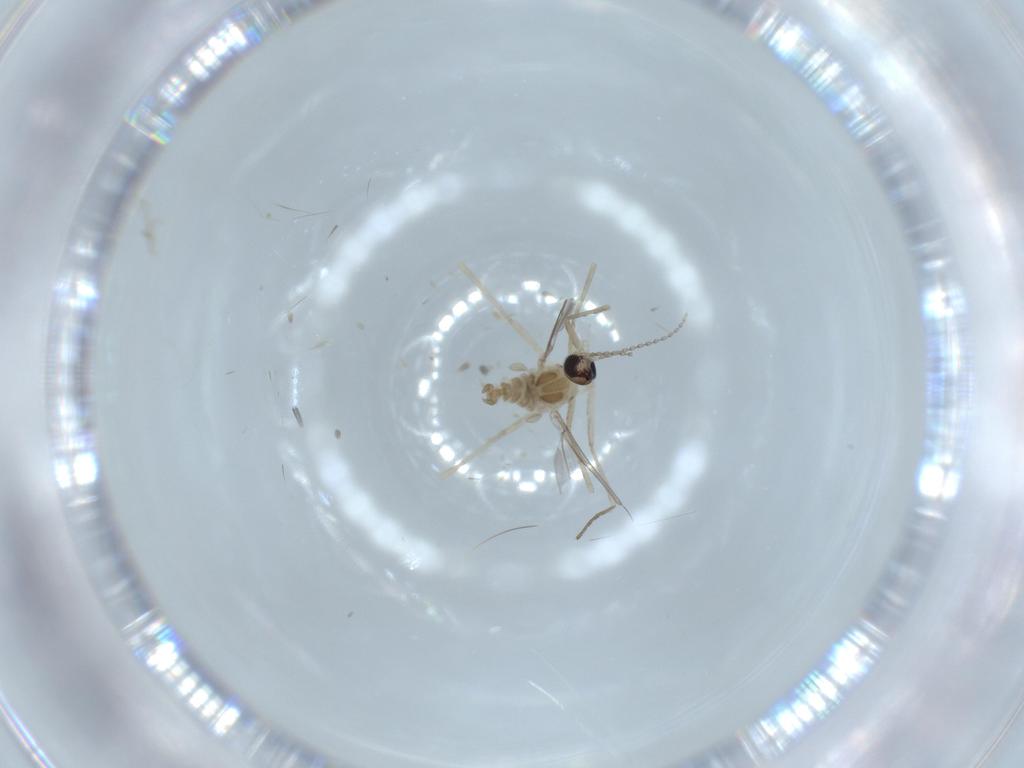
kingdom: Animalia
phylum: Arthropoda
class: Insecta
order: Diptera
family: Cecidomyiidae
